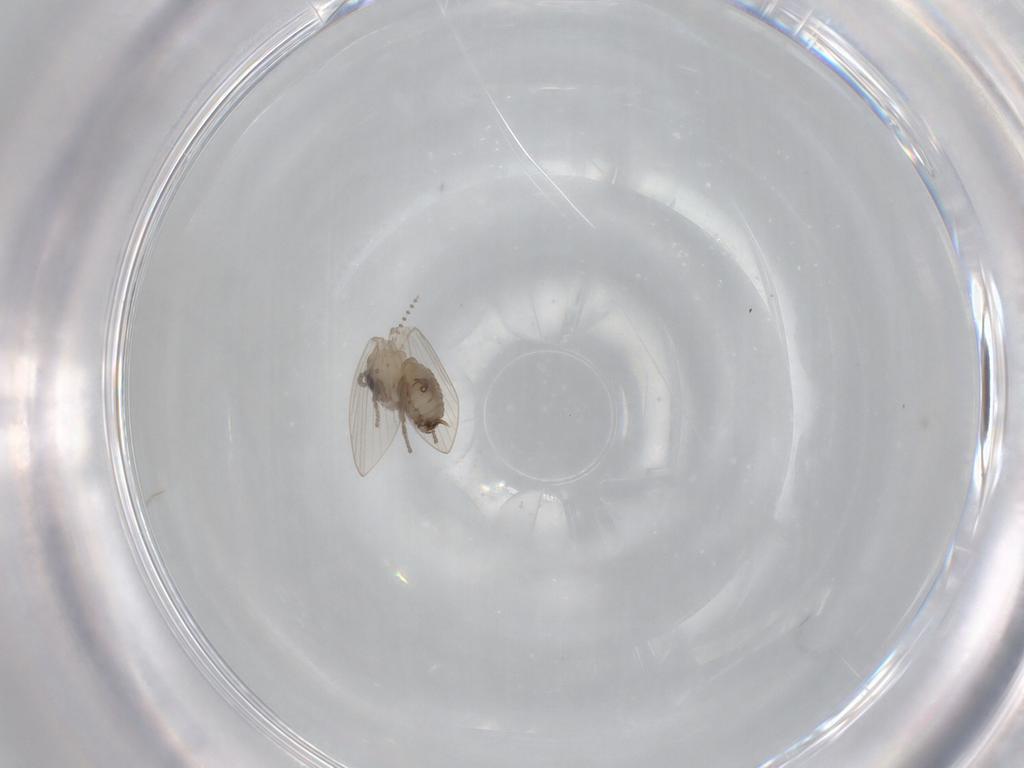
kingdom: Animalia
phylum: Arthropoda
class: Insecta
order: Diptera
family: Psychodidae
